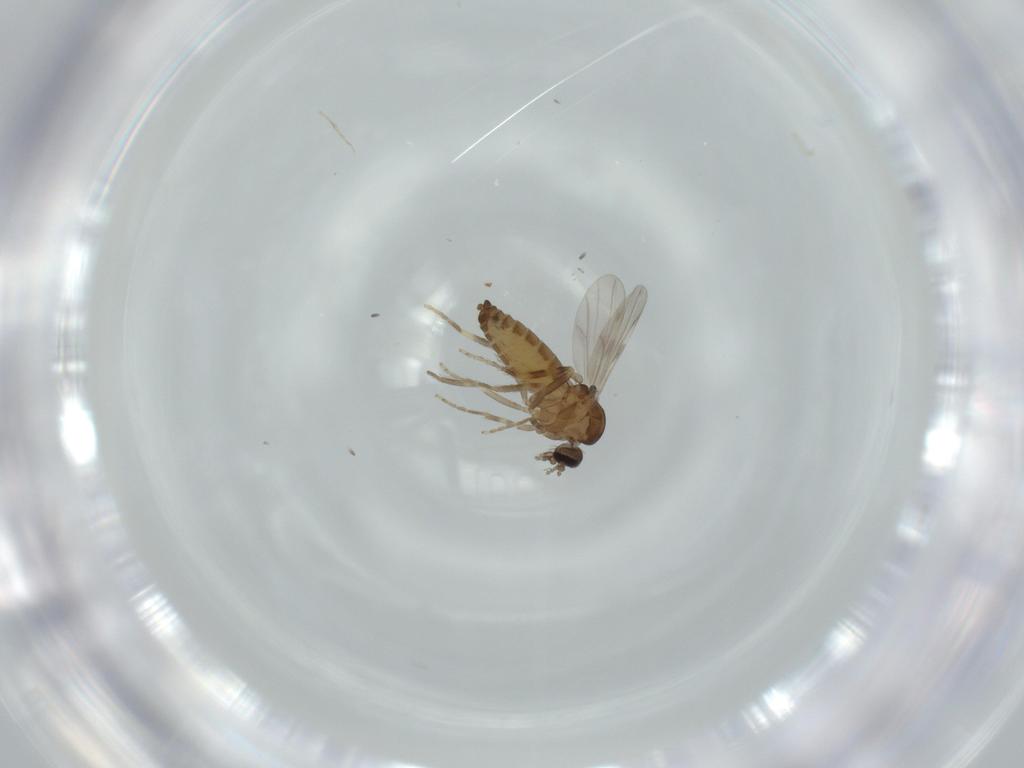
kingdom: Animalia
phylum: Arthropoda
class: Insecta
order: Diptera
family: Ceratopogonidae
